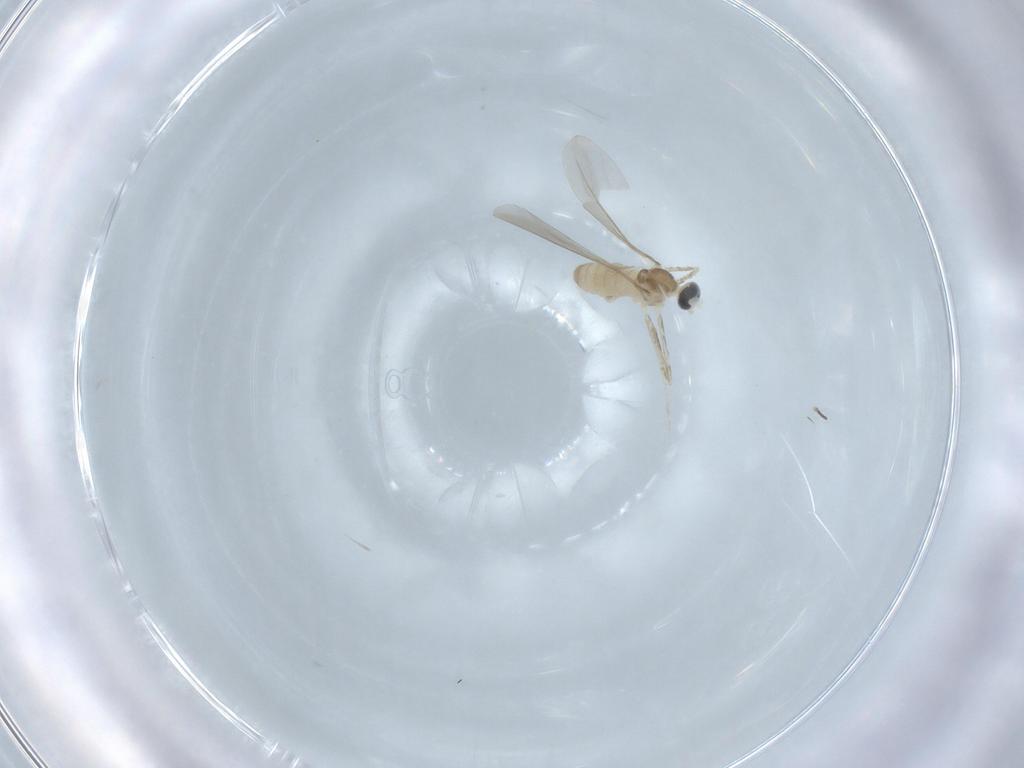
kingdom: Animalia
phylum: Arthropoda
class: Insecta
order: Diptera
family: Cecidomyiidae
